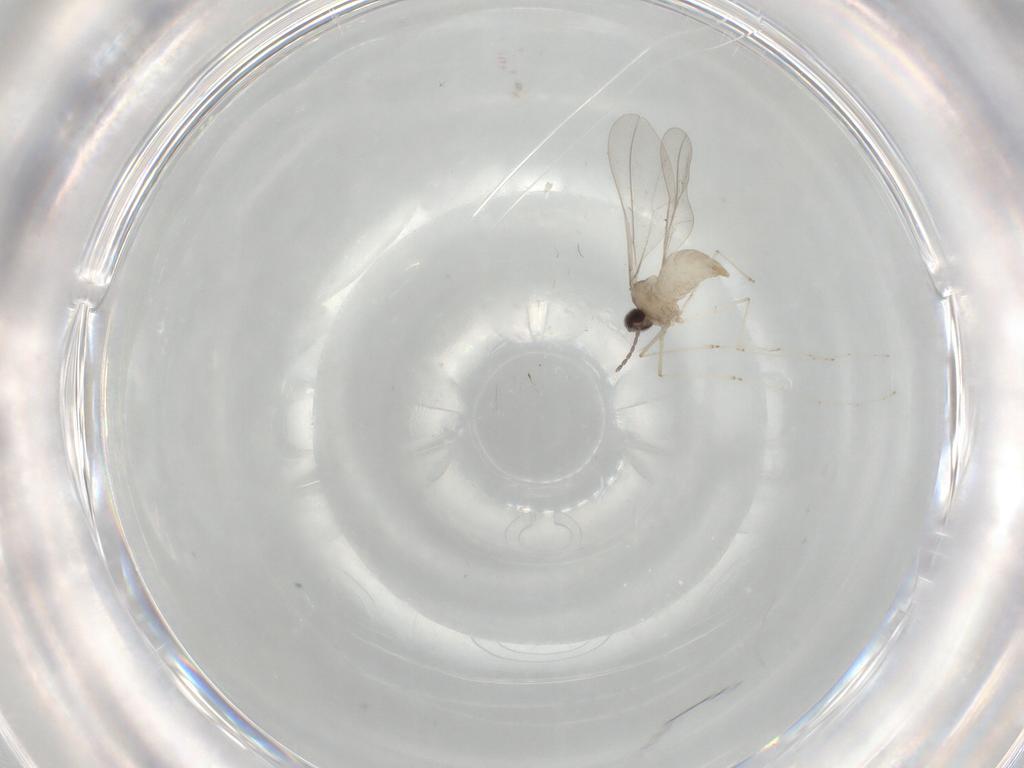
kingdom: Animalia
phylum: Arthropoda
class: Insecta
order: Diptera
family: Cecidomyiidae
